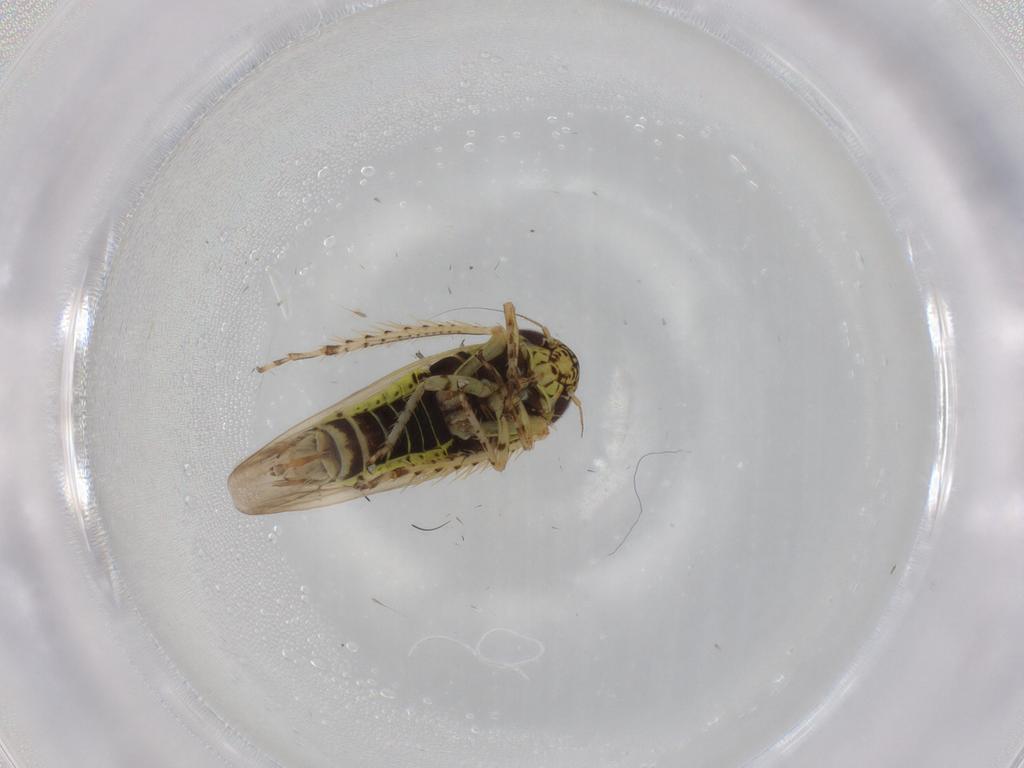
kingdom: Animalia
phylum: Arthropoda
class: Insecta
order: Hemiptera
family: Cicadellidae
